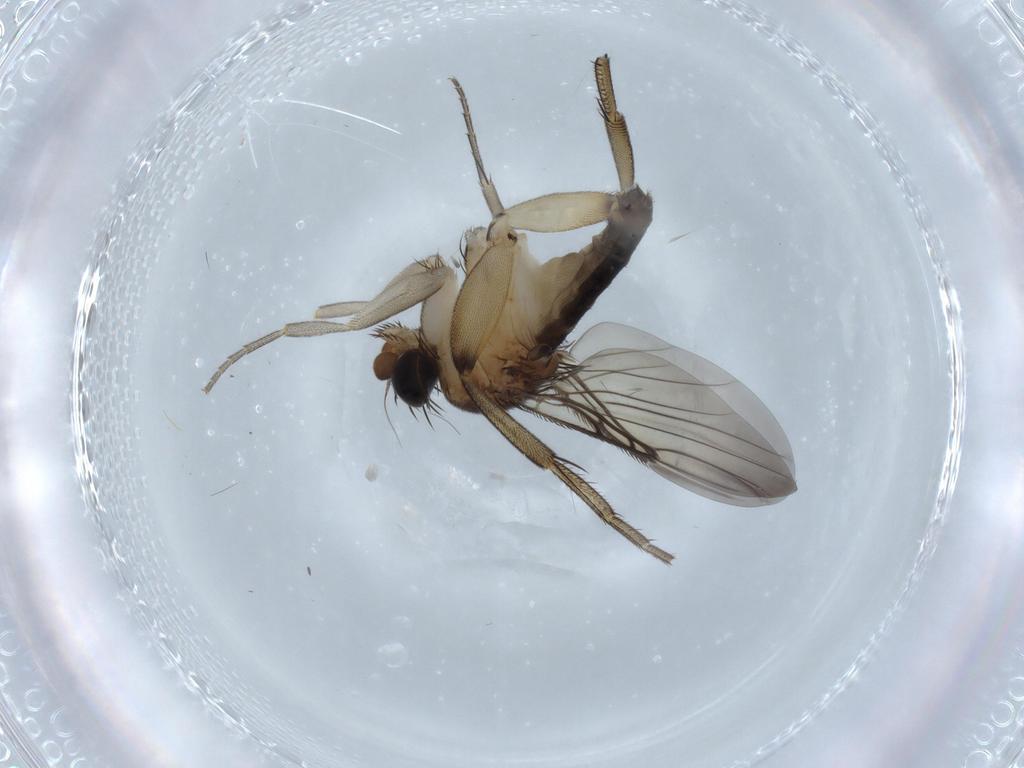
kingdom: Animalia
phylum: Arthropoda
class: Insecta
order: Diptera
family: Phoridae
